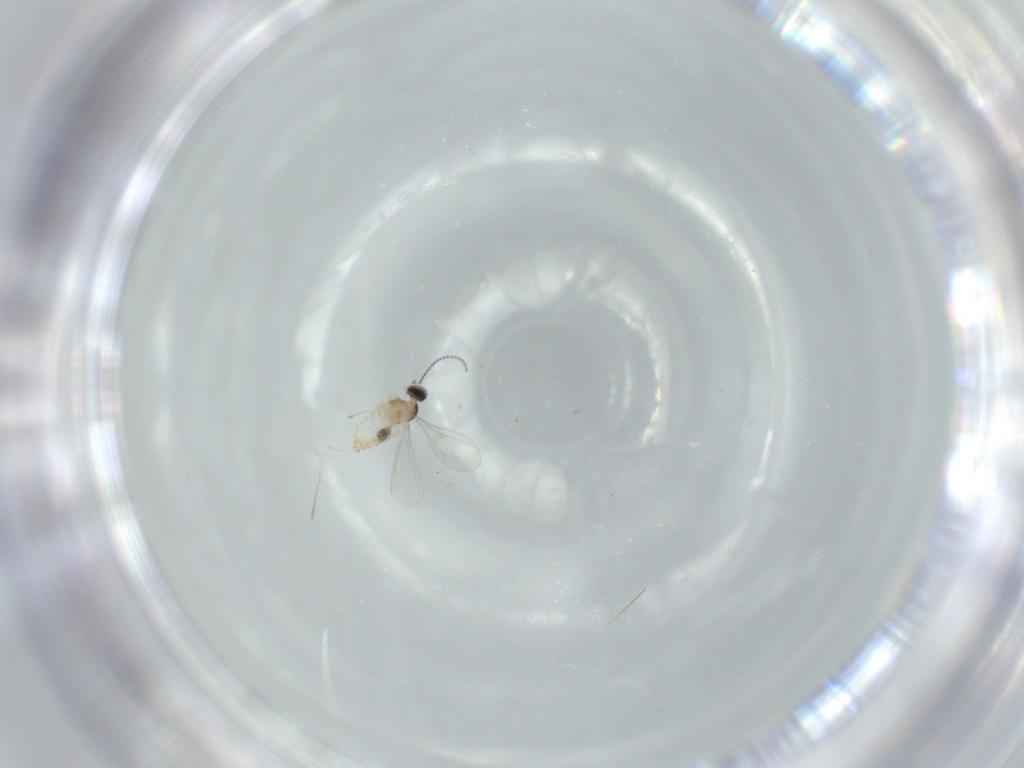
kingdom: Animalia
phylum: Arthropoda
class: Insecta
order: Diptera
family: Cecidomyiidae
